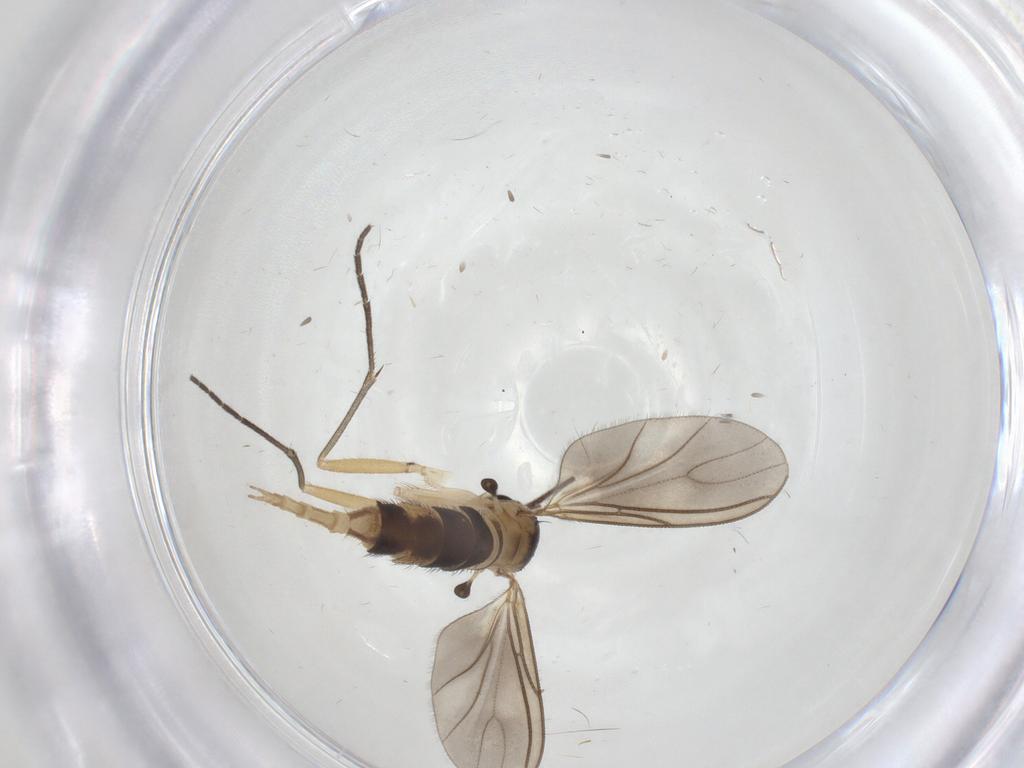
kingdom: Animalia
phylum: Arthropoda
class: Insecta
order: Diptera
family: Sciaridae
